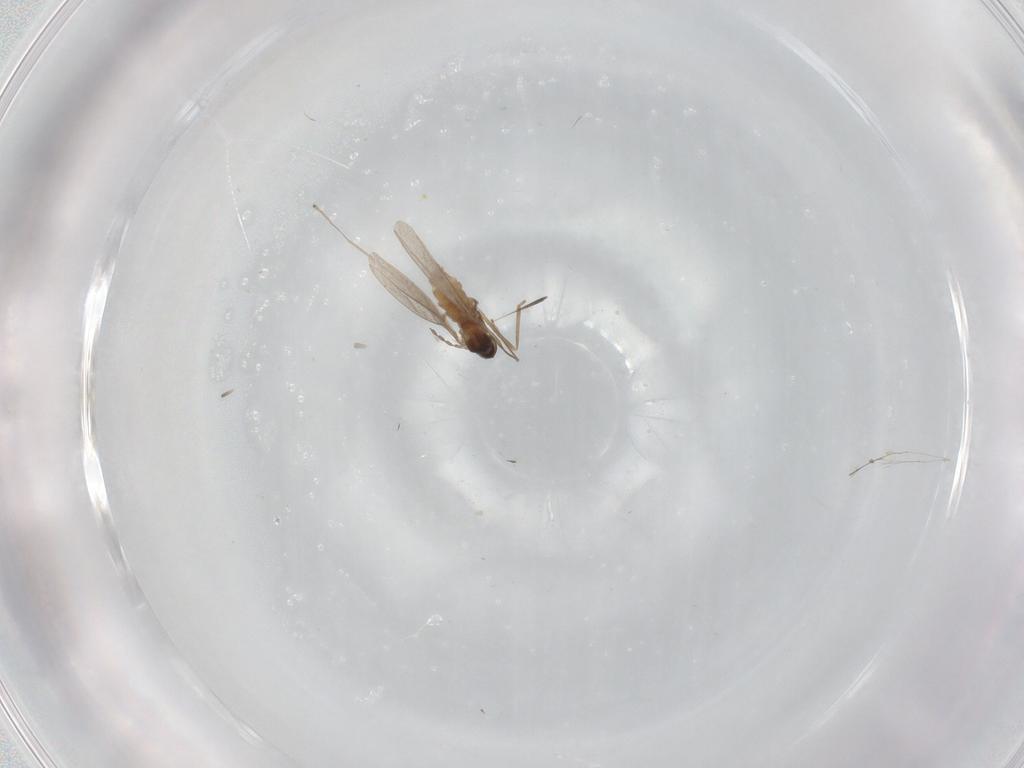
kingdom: Animalia
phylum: Arthropoda
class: Insecta
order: Diptera
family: Cecidomyiidae
